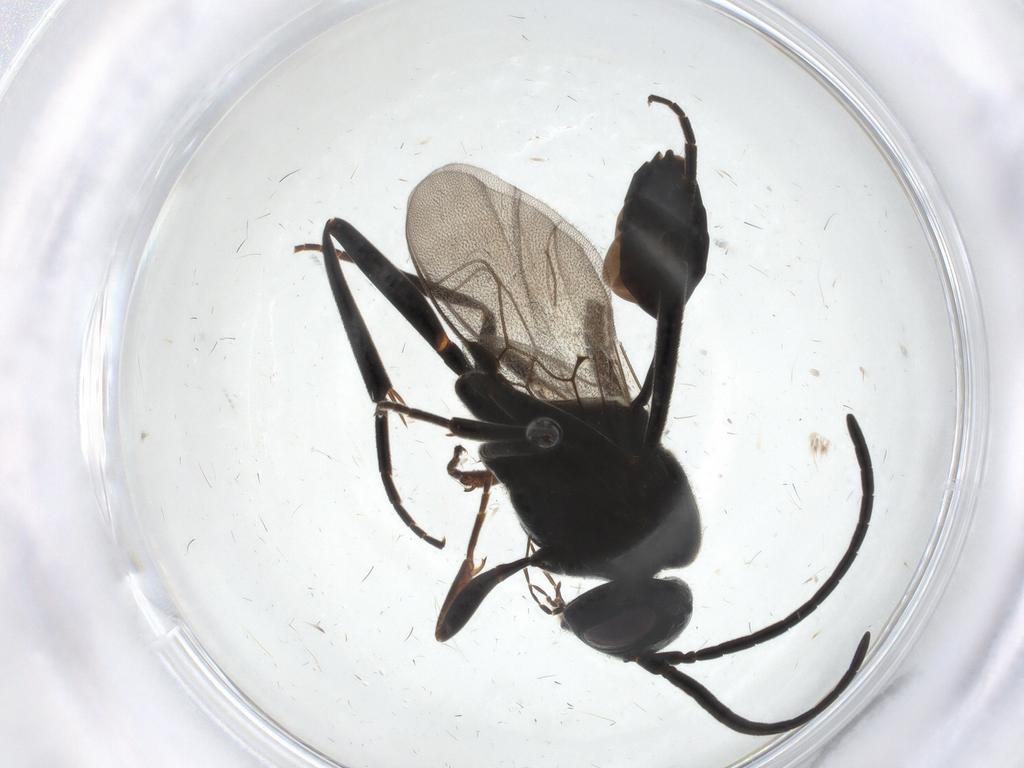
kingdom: Animalia
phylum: Arthropoda
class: Insecta
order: Hymenoptera
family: Evaniidae
